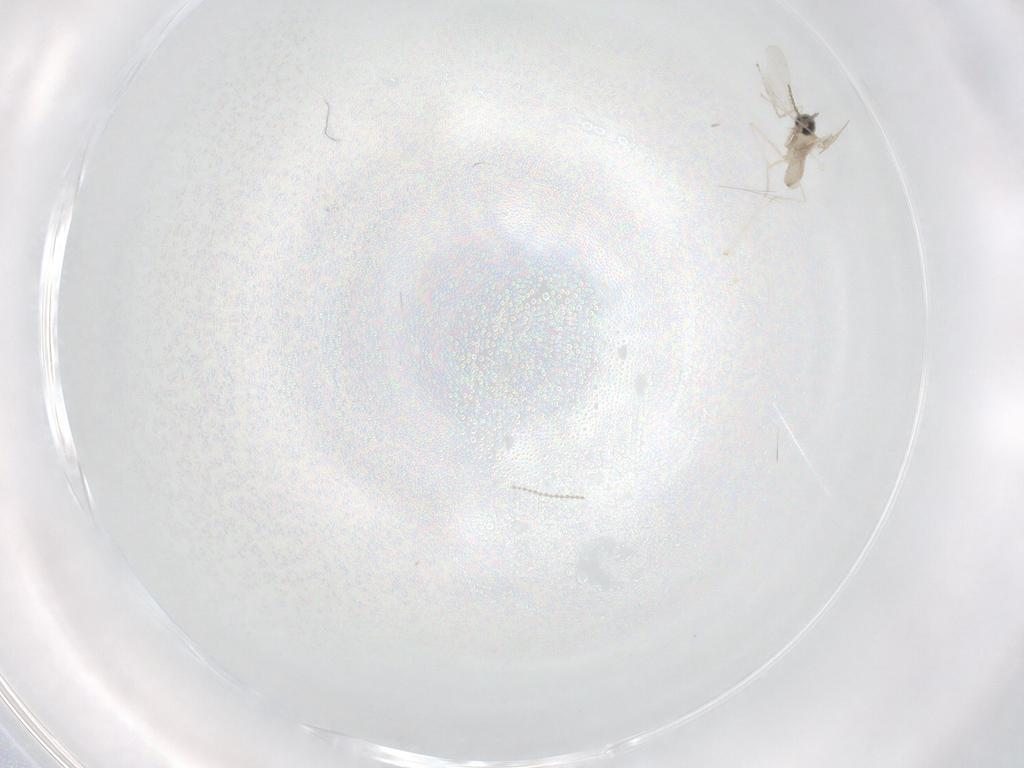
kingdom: Animalia
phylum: Arthropoda
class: Insecta
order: Diptera
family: Cecidomyiidae
